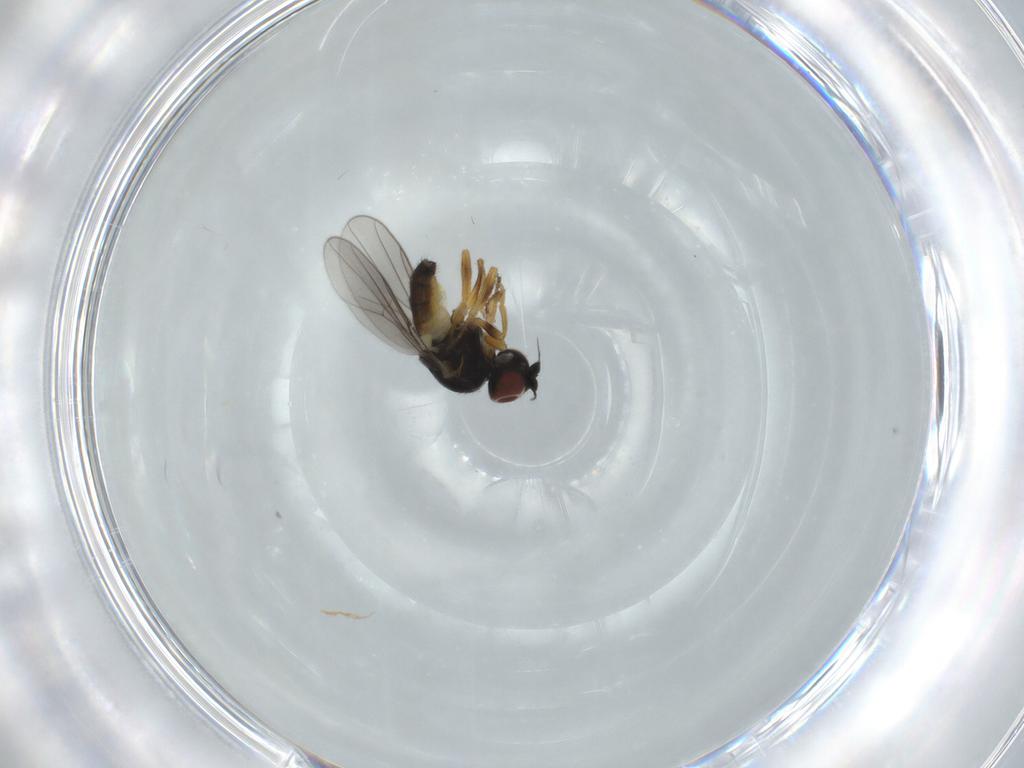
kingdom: Animalia
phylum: Arthropoda
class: Insecta
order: Diptera
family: Chloropidae
